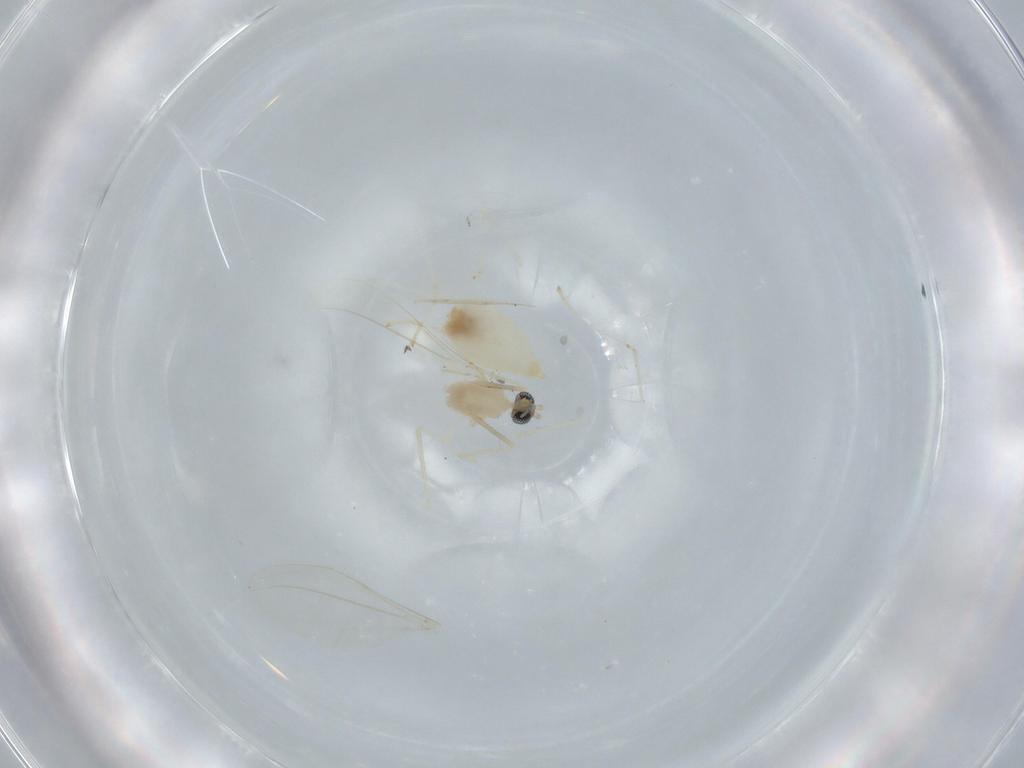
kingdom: Animalia
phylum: Arthropoda
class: Insecta
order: Diptera
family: Cecidomyiidae
